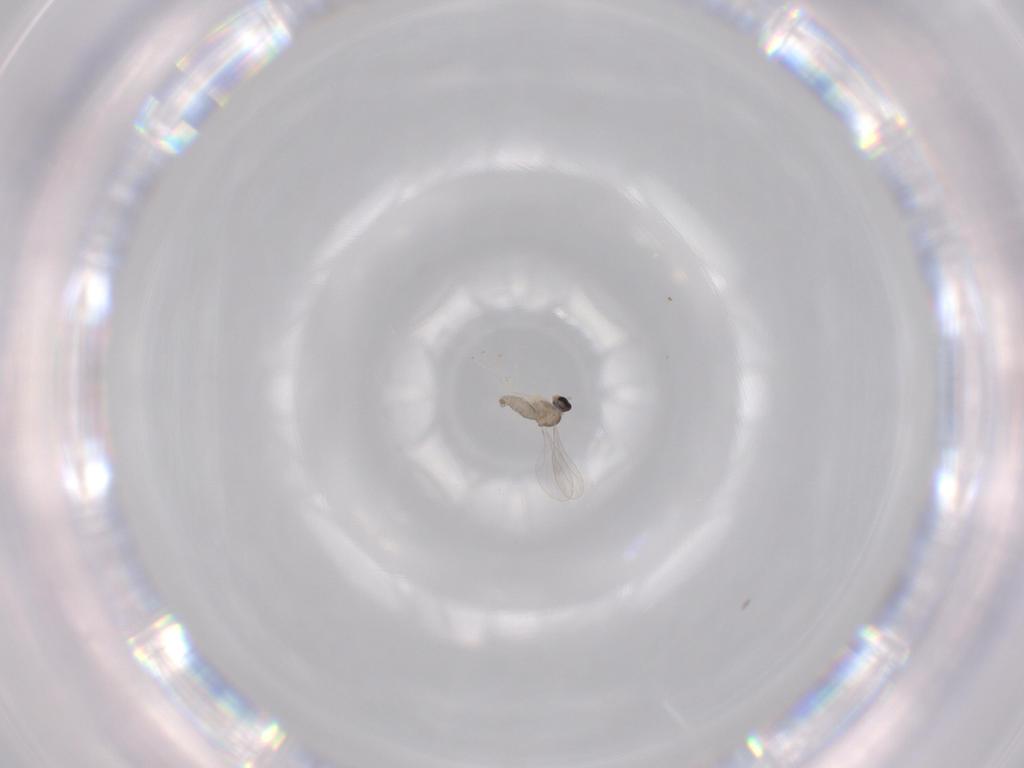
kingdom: Animalia
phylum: Arthropoda
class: Insecta
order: Diptera
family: Cecidomyiidae
